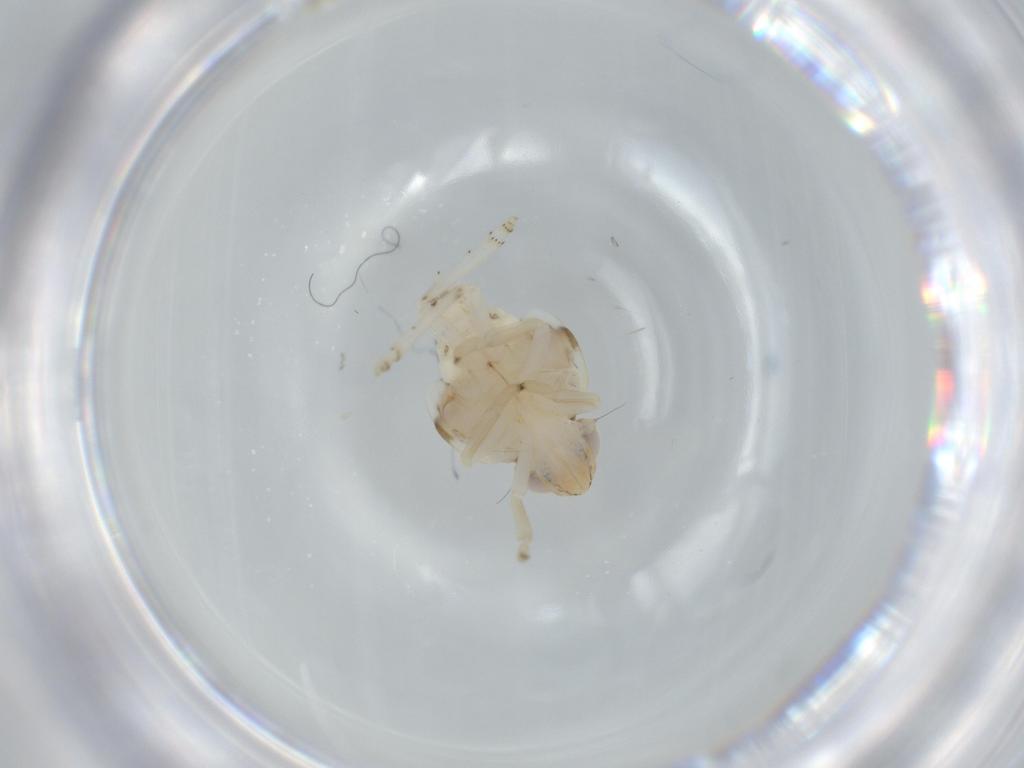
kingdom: Animalia
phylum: Arthropoda
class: Insecta
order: Hemiptera
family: Nogodinidae
